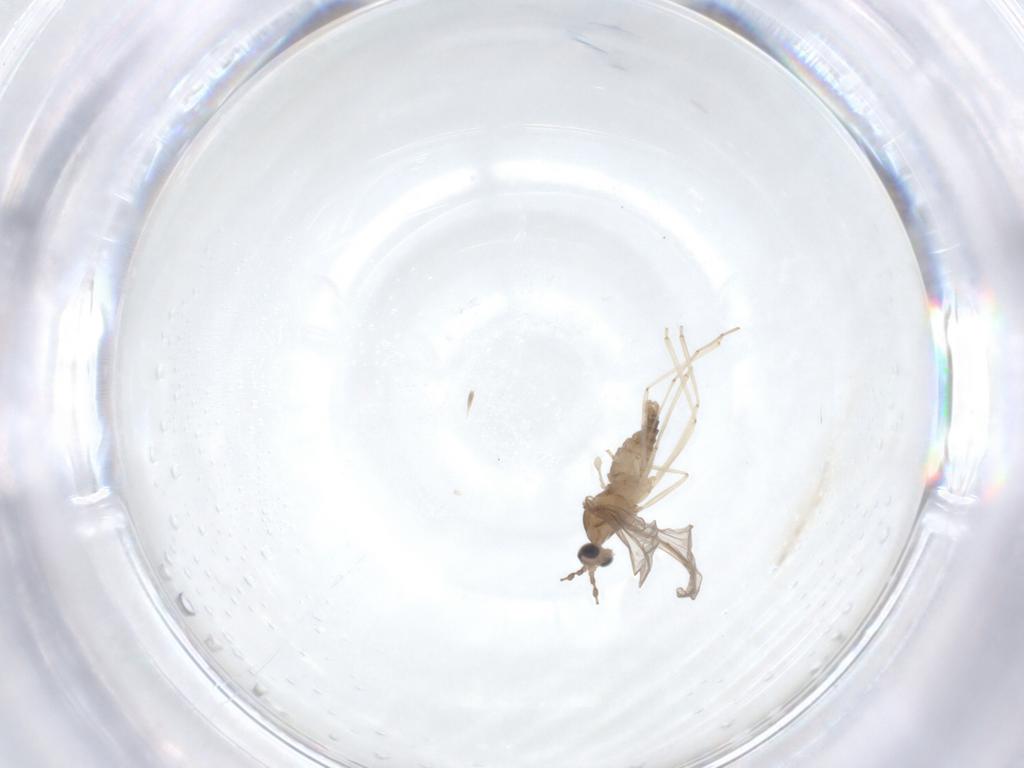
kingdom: Animalia
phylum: Arthropoda
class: Insecta
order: Diptera
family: Cecidomyiidae
